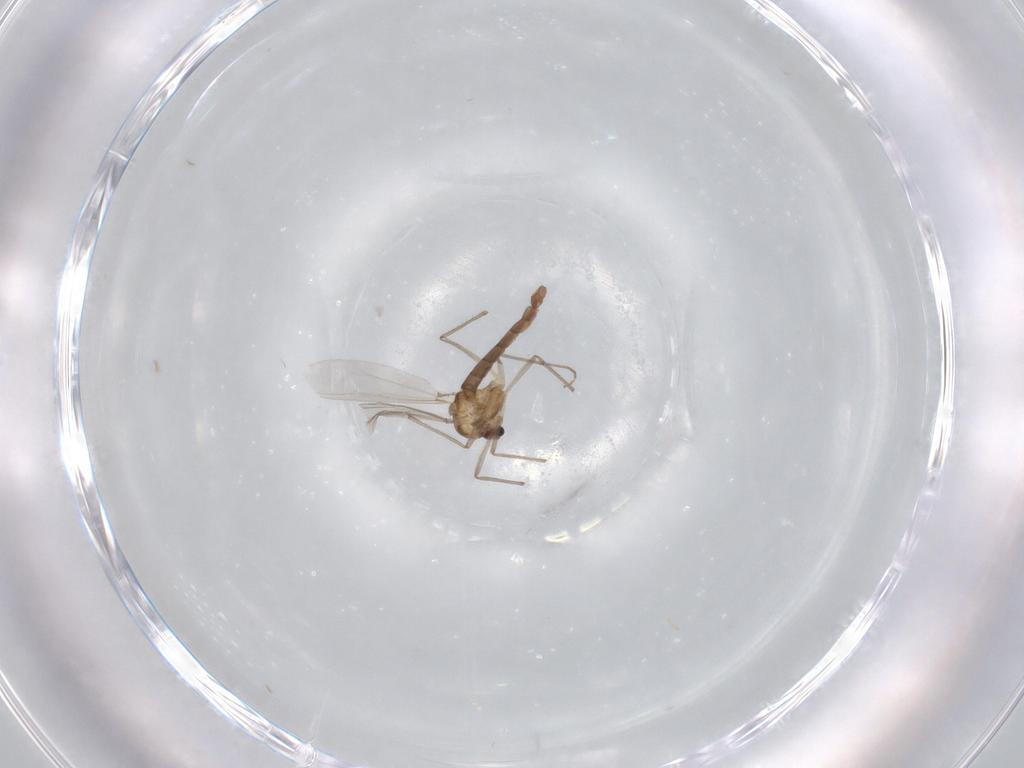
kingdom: Animalia
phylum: Arthropoda
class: Insecta
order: Diptera
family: Chironomidae
